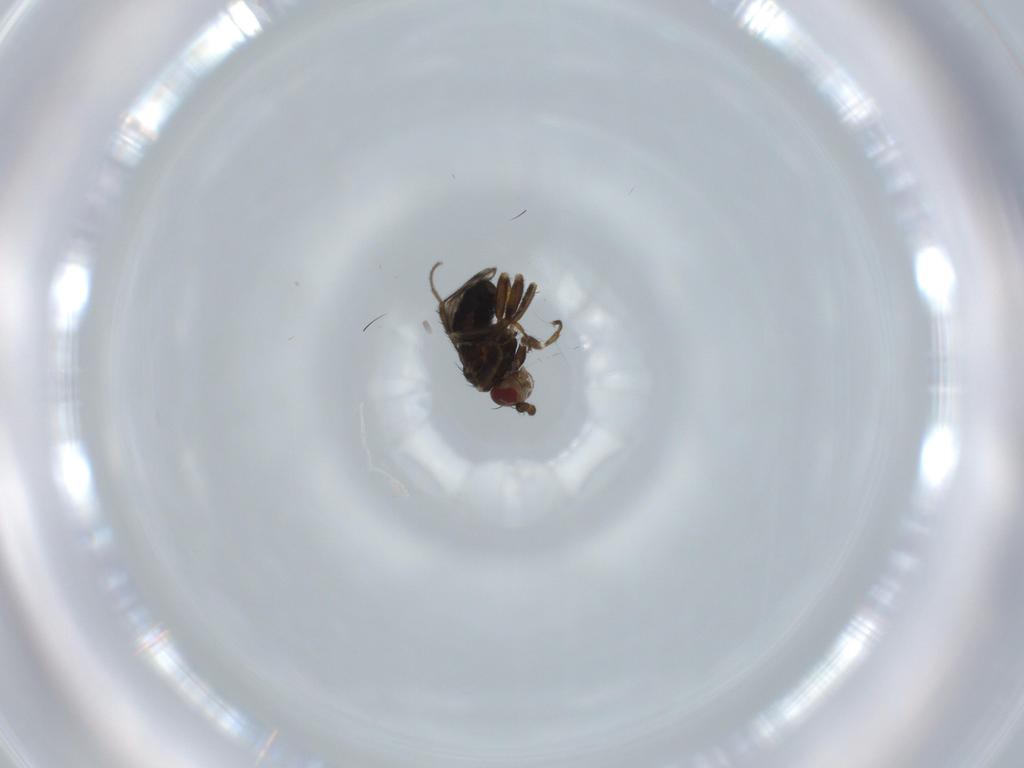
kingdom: Animalia
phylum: Arthropoda
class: Insecta
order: Diptera
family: Sphaeroceridae
